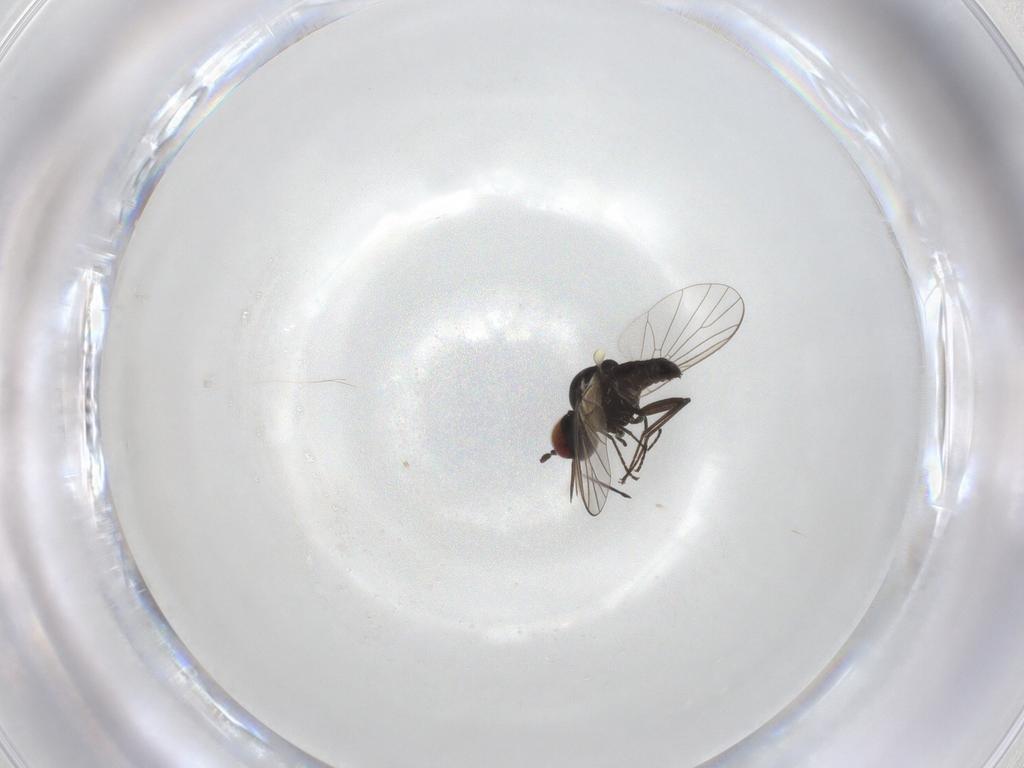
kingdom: Animalia
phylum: Arthropoda
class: Insecta
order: Diptera
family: Bombyliidae
